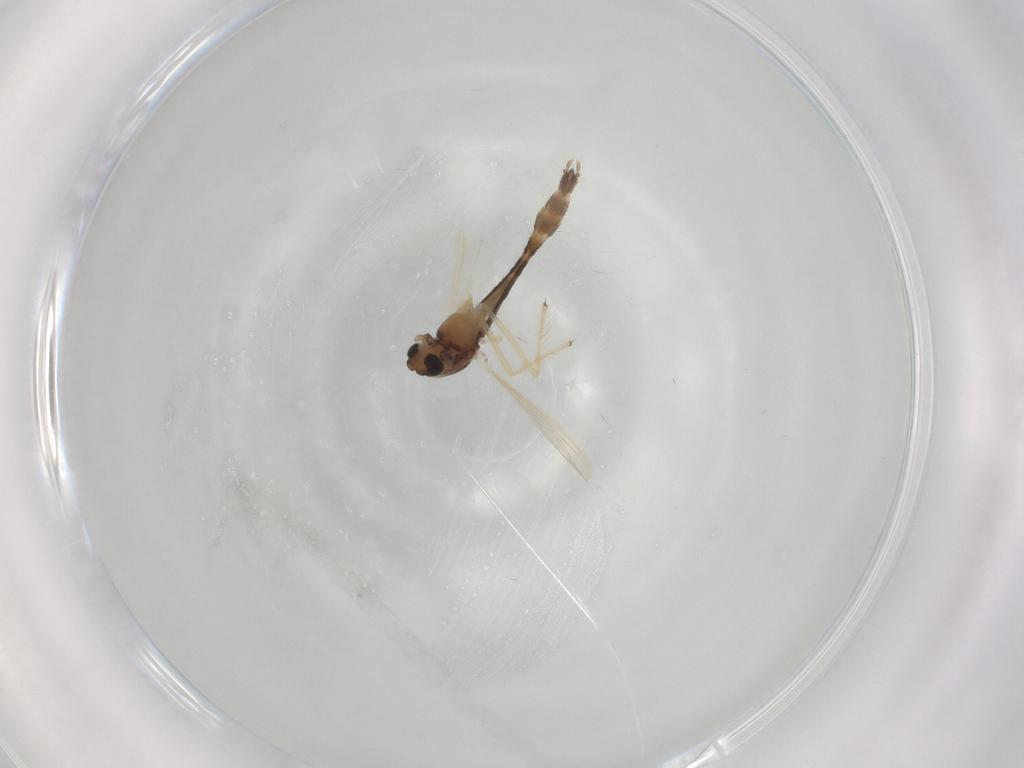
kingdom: Animalia
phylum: Arthropoda
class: Insecta
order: Diptera
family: Chironomidae
